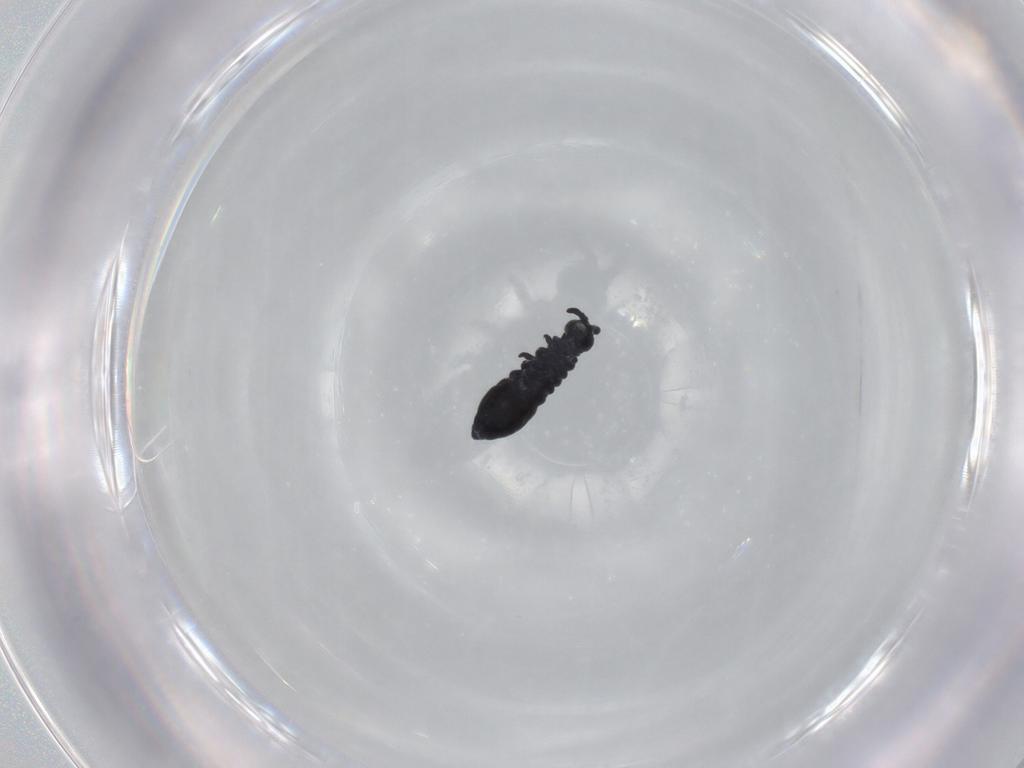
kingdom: Animalia
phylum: Arthropoda
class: Collembola
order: Poduromorpha
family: Hypogastruridae
